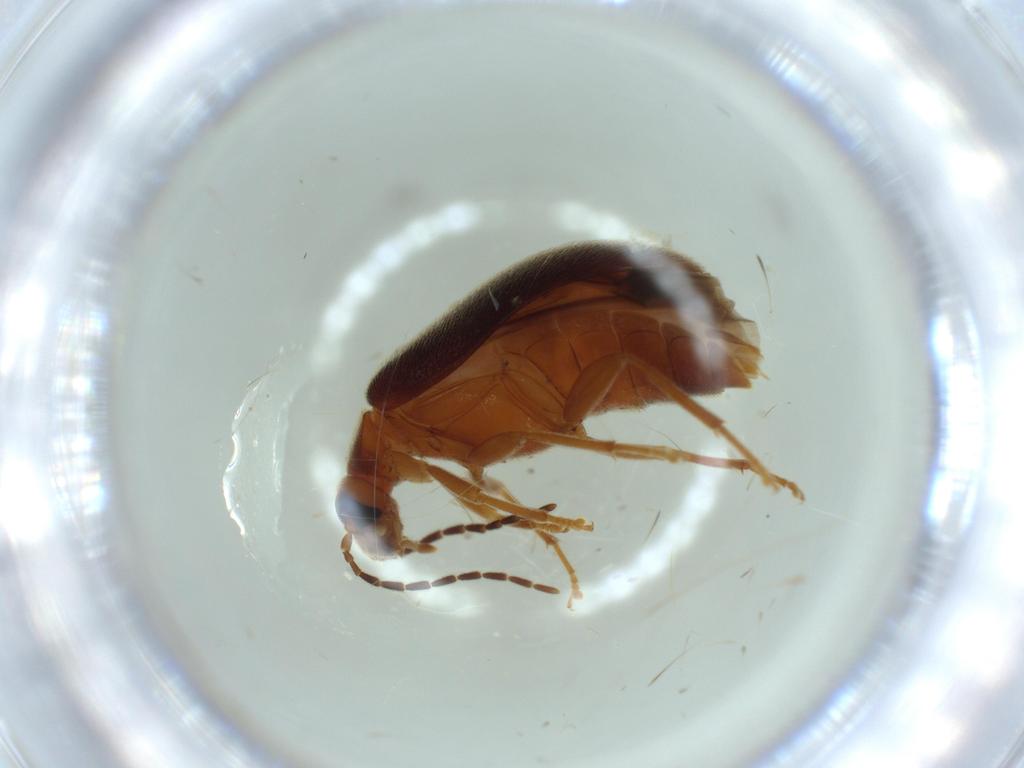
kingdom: Animalia
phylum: Arthropoda
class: Insecta
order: Coleoptera
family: Scraptiidae
